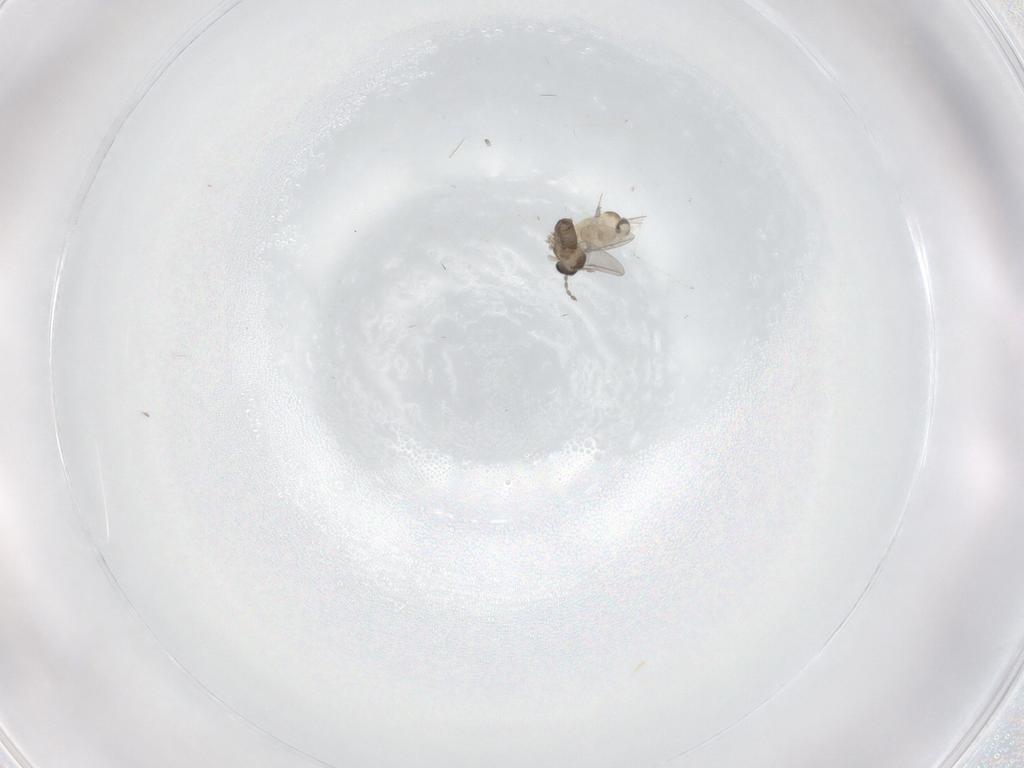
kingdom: Animalia
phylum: Arthropoda
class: Insecta
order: Diptera
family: Cecidomyiidae
